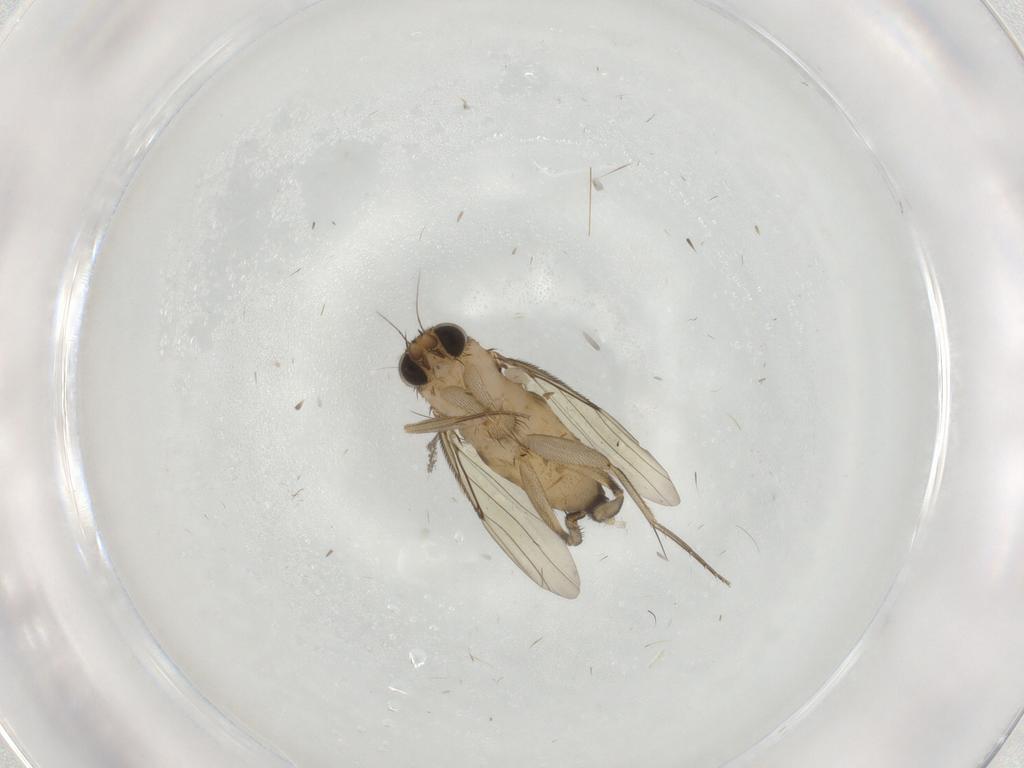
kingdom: Animalia
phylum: Arthropoda
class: Insecta
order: Diptera
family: Phoridae
